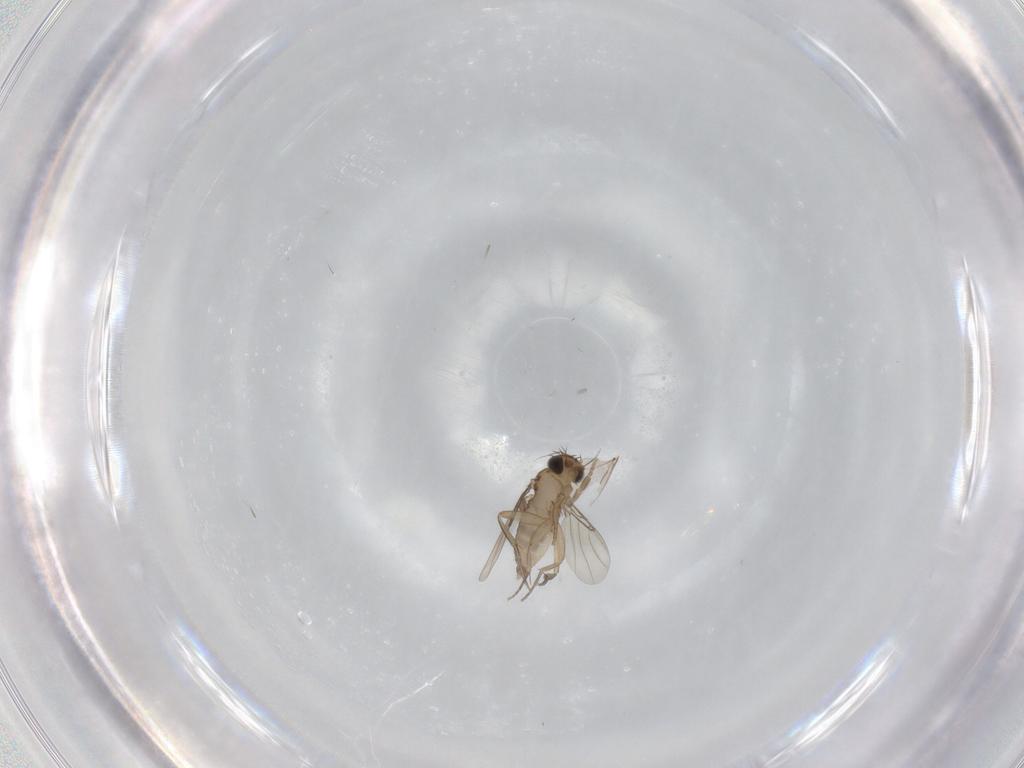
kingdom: Animalia
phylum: Arthropoda
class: Insecta
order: Diptera
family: Phoridae
